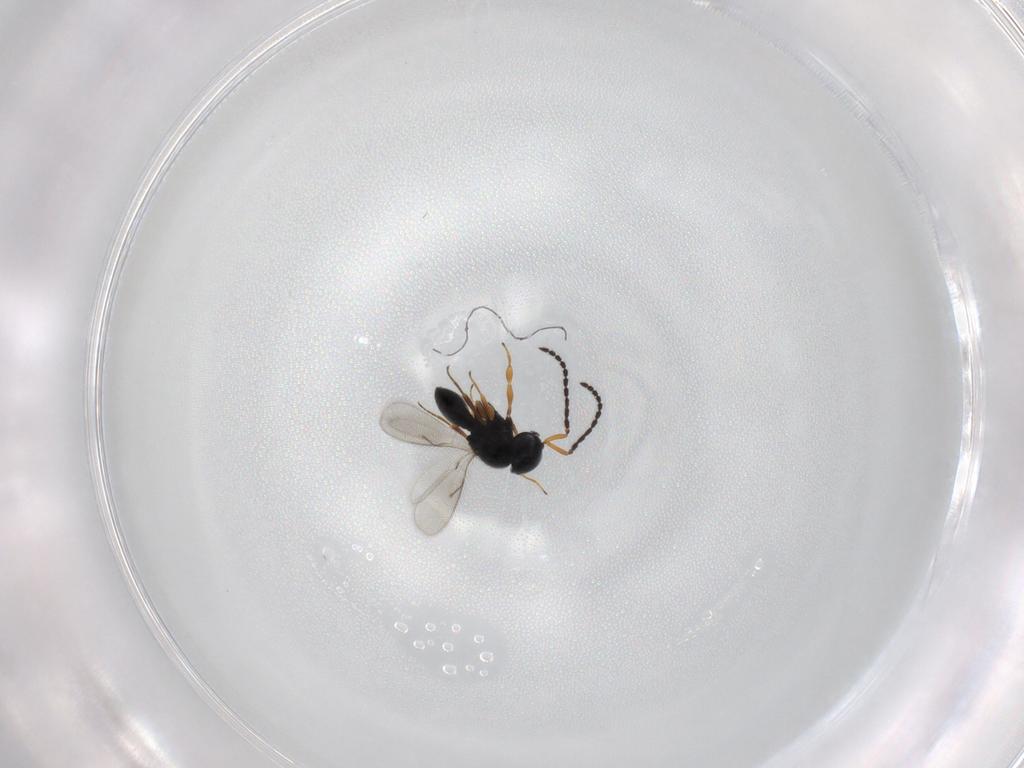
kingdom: Animalia
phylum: Arthropoda
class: Insecta
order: Hymenoptera
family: Scelionidae
